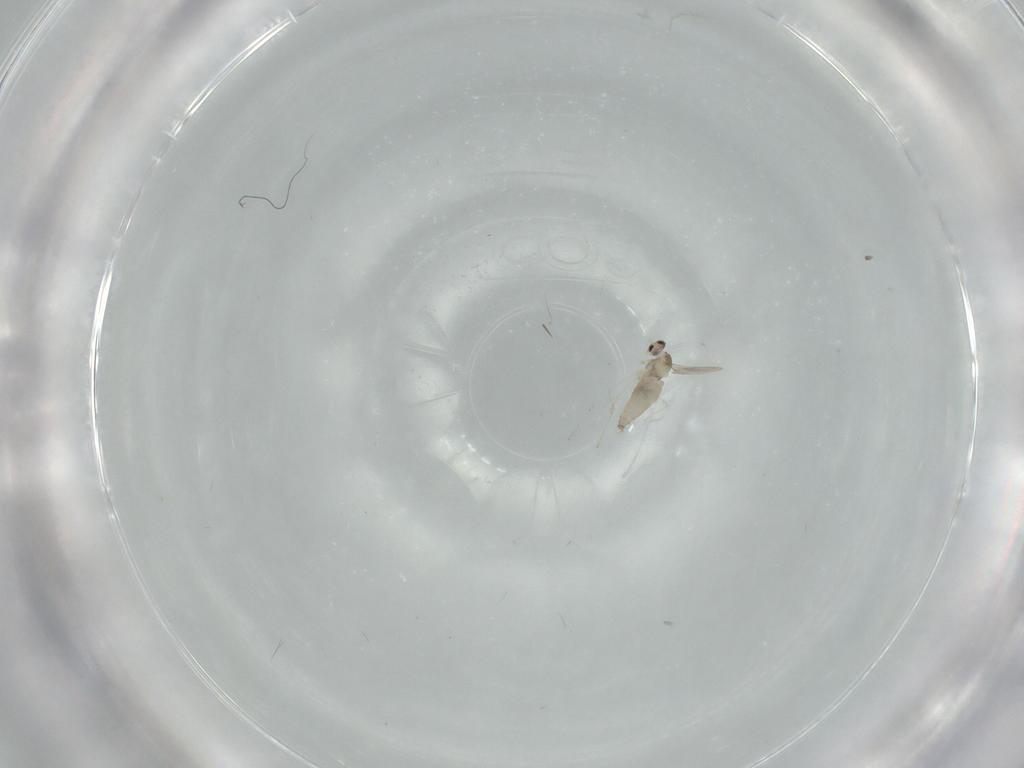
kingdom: Animalia
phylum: Arthropoda
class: Insecta
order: Diptera
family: Cecidomyiidae
